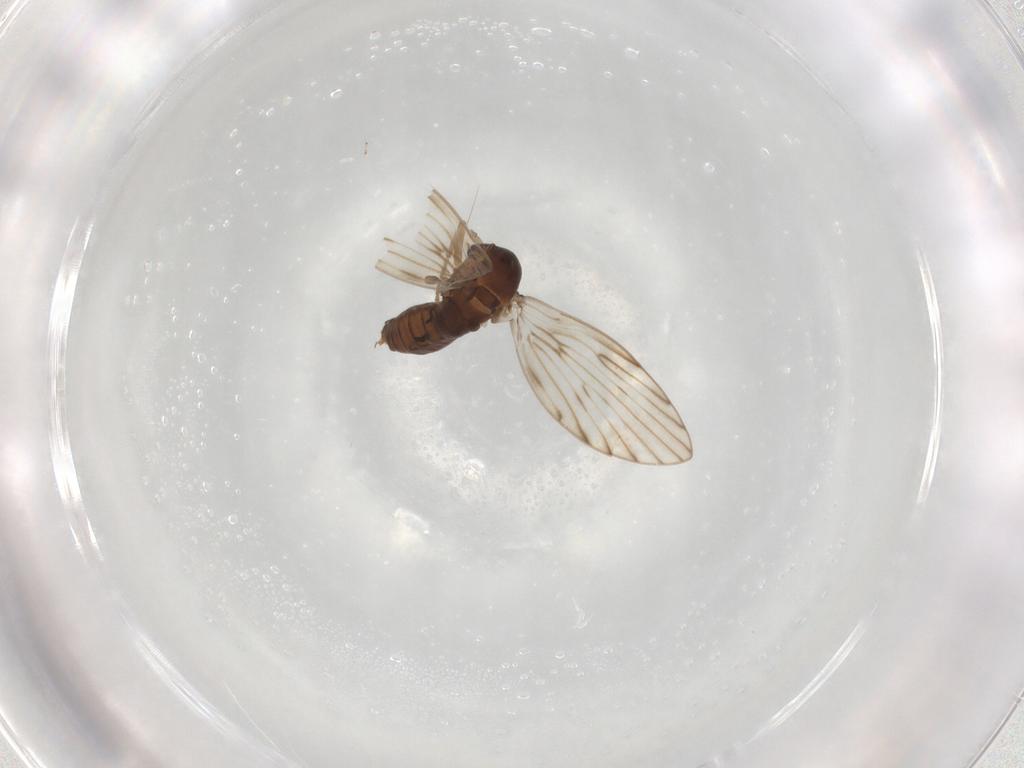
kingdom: Animalia
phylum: Arthropoda
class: Insecta
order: Diptera
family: Psychodidae
